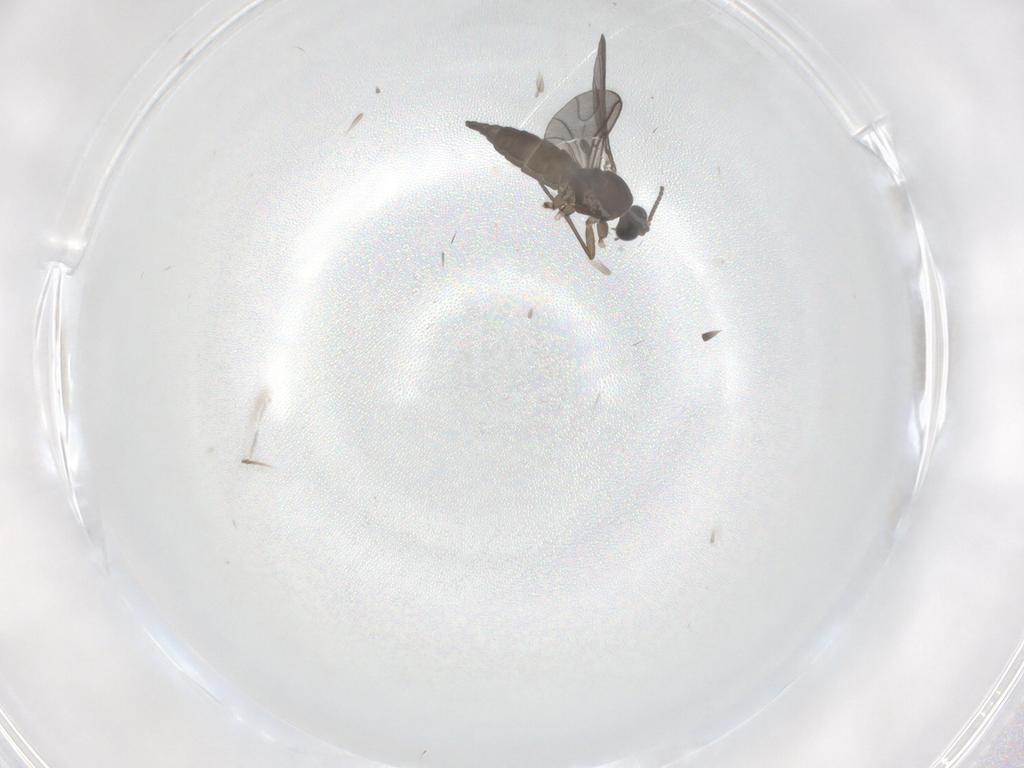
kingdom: Animalia
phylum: Arthropoda
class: Insecta
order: Diptera
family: Sciaridae
